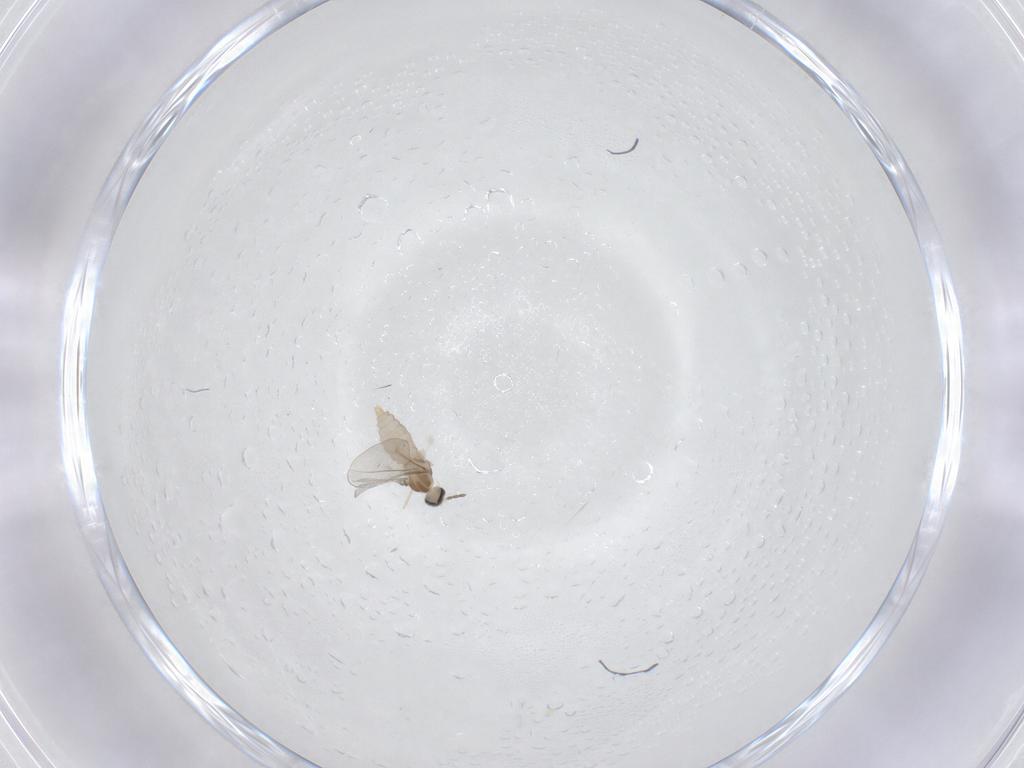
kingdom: Animalia
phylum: Arthropoda
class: Insecta
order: Diptera
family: Cecidomyiidae
